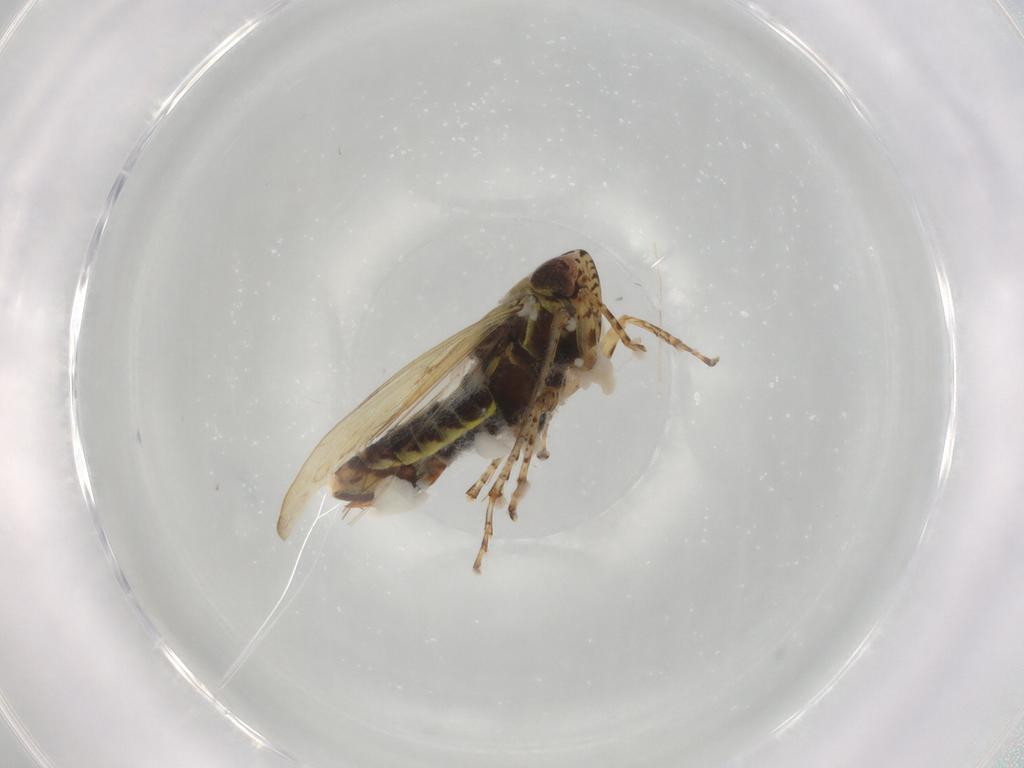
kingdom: Animalia
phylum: Arthropoda
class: Insecta
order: Hemiptera
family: Cicadellidae
